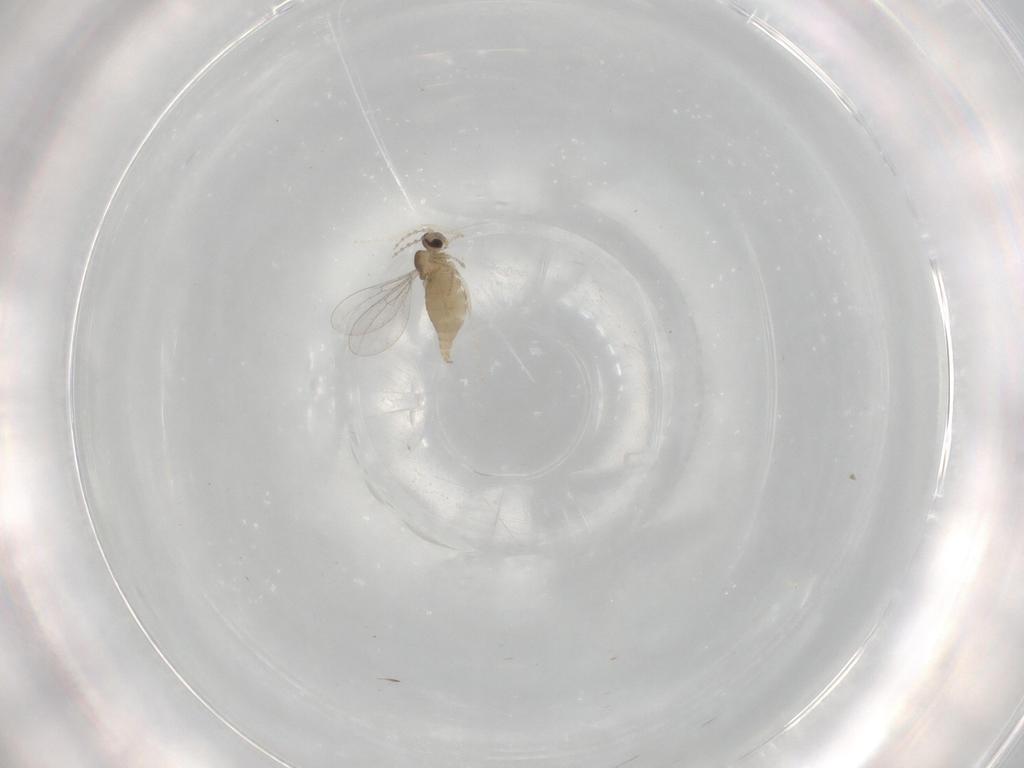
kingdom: Animalia
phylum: Arthropoda
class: Insecta
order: Diptera
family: Cecidomyiidae
